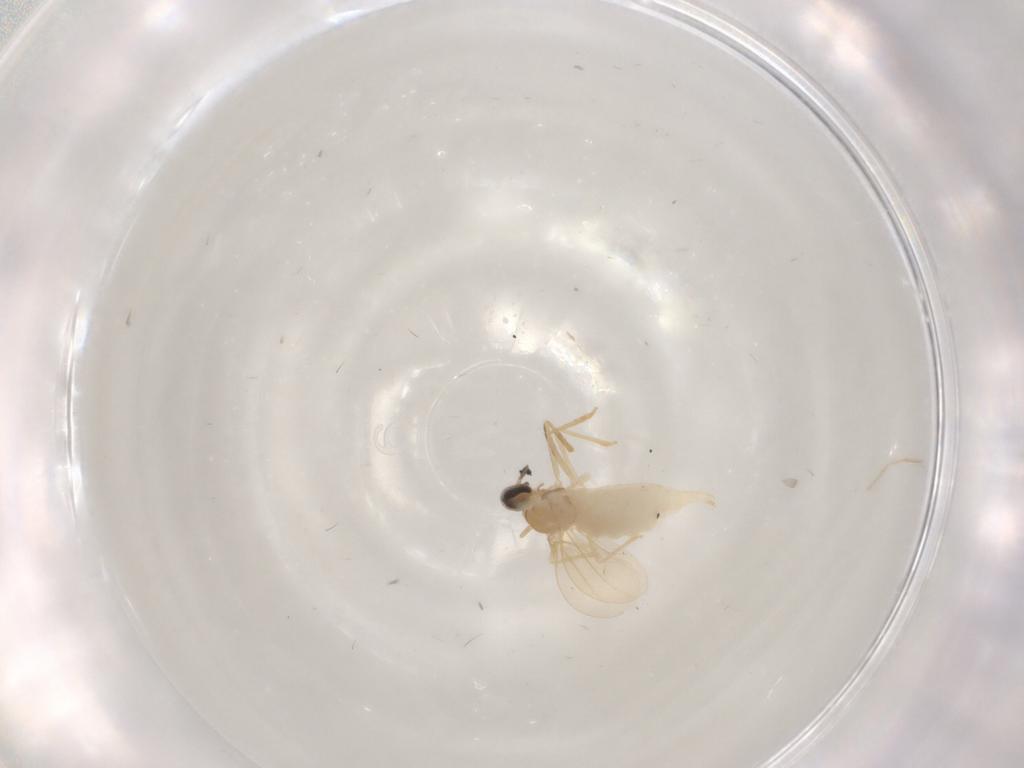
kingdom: Animalia
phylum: Arthropoda
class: Insecta
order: Diptera
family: Cecidomyiidae
